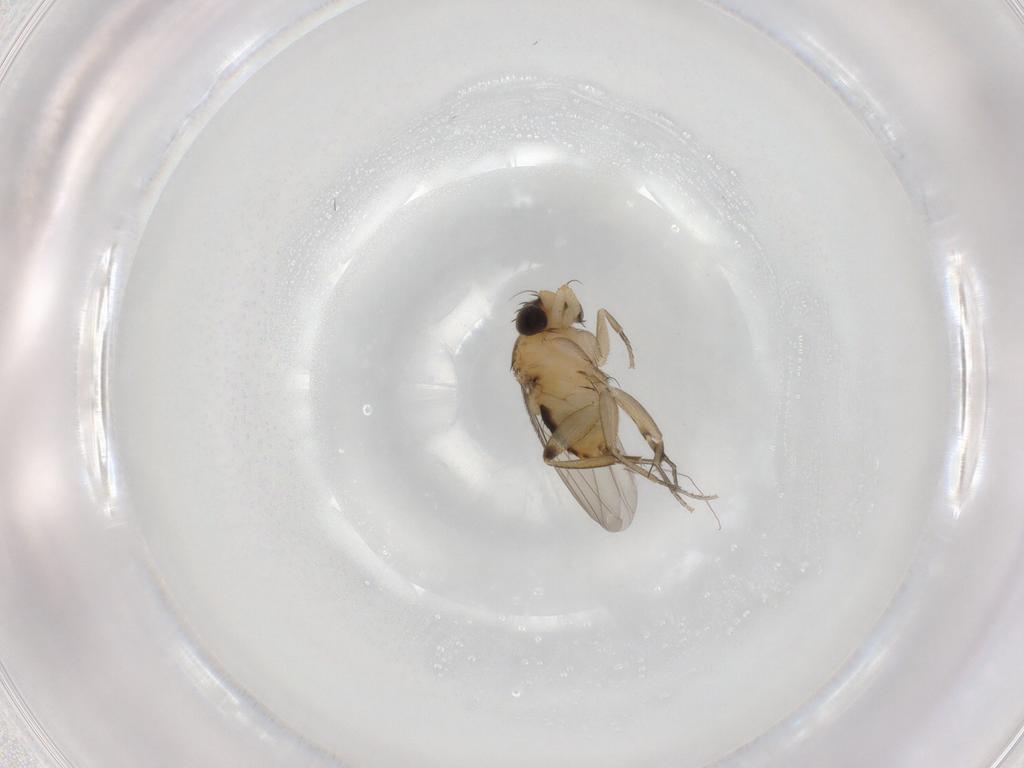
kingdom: Animalia
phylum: Arthropoda
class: Insecta
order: Diptera
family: Phoridae
